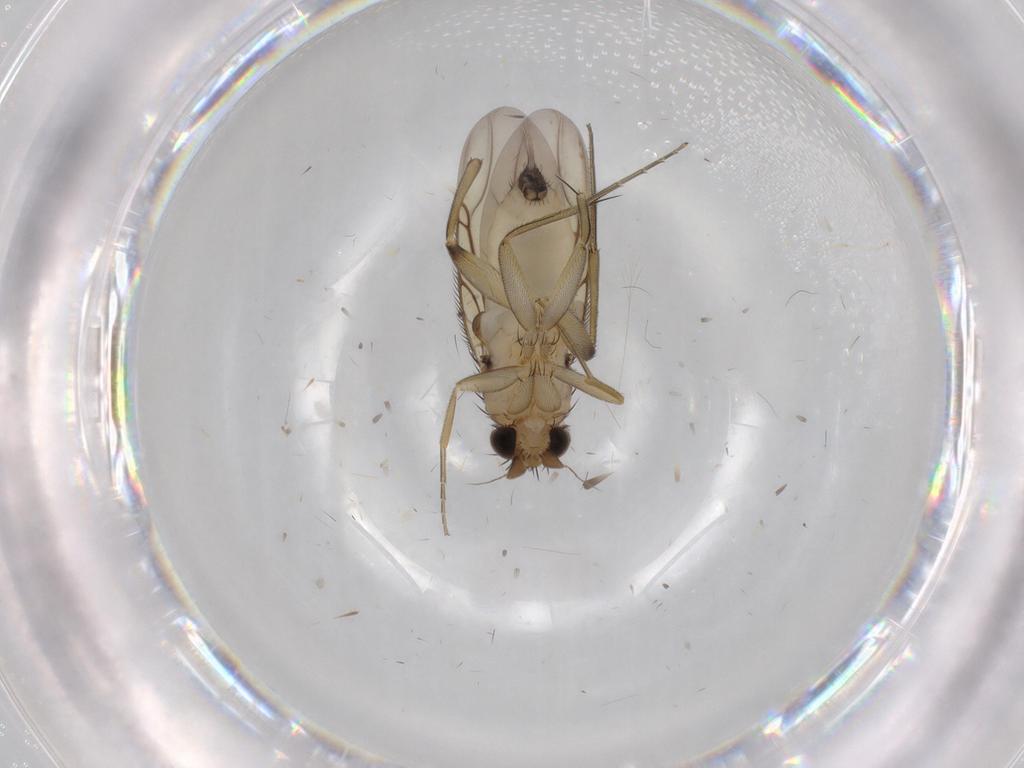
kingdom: Animalia
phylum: Arthropoda
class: Insecta
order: Diptera
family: Phoridae
